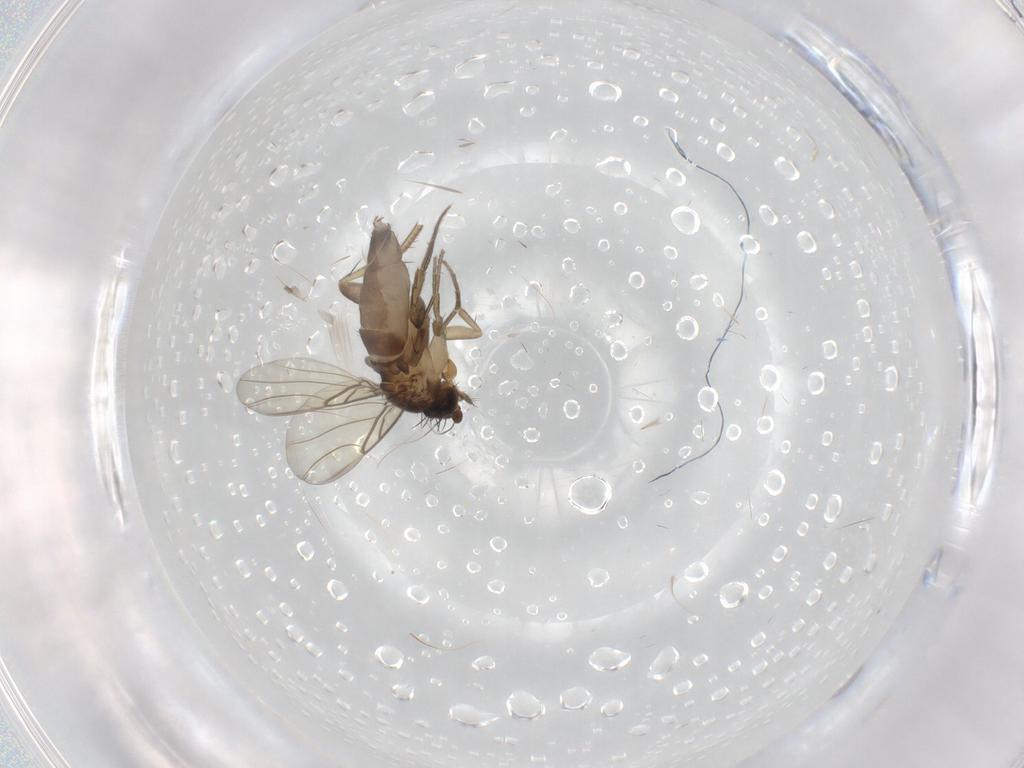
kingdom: Animalia
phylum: Arthropoda
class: Insecta
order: Diptera
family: Phoridae
